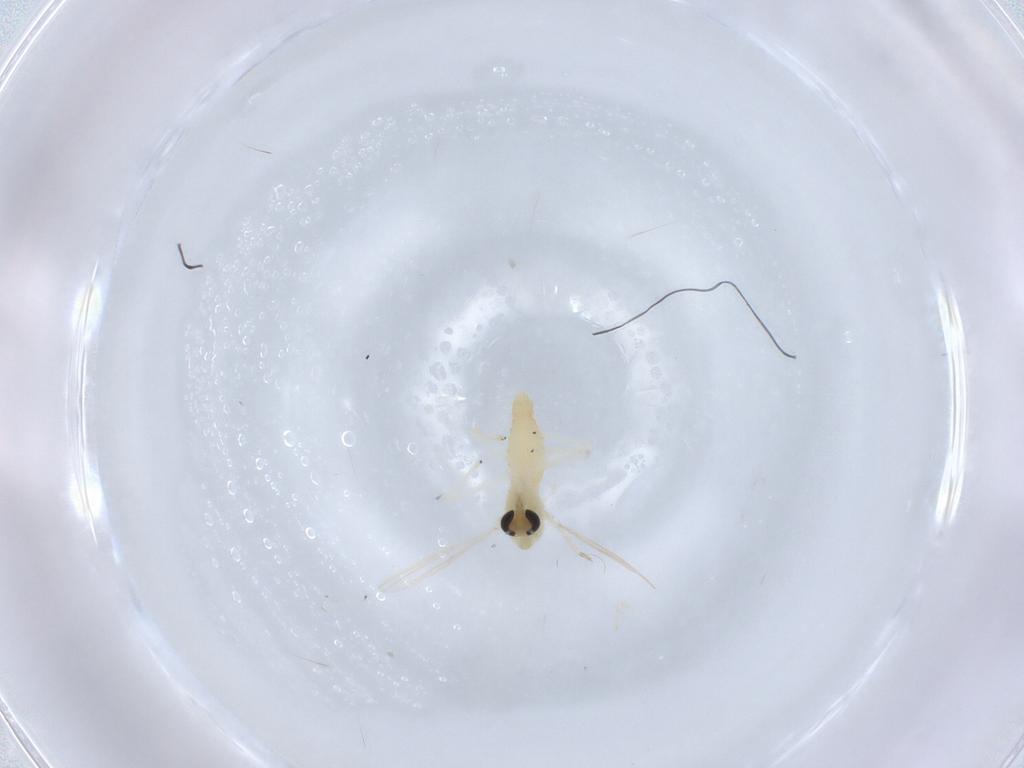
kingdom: Animalia
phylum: Arthropoda
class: Insecta
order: Diptera
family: Chironomidae
